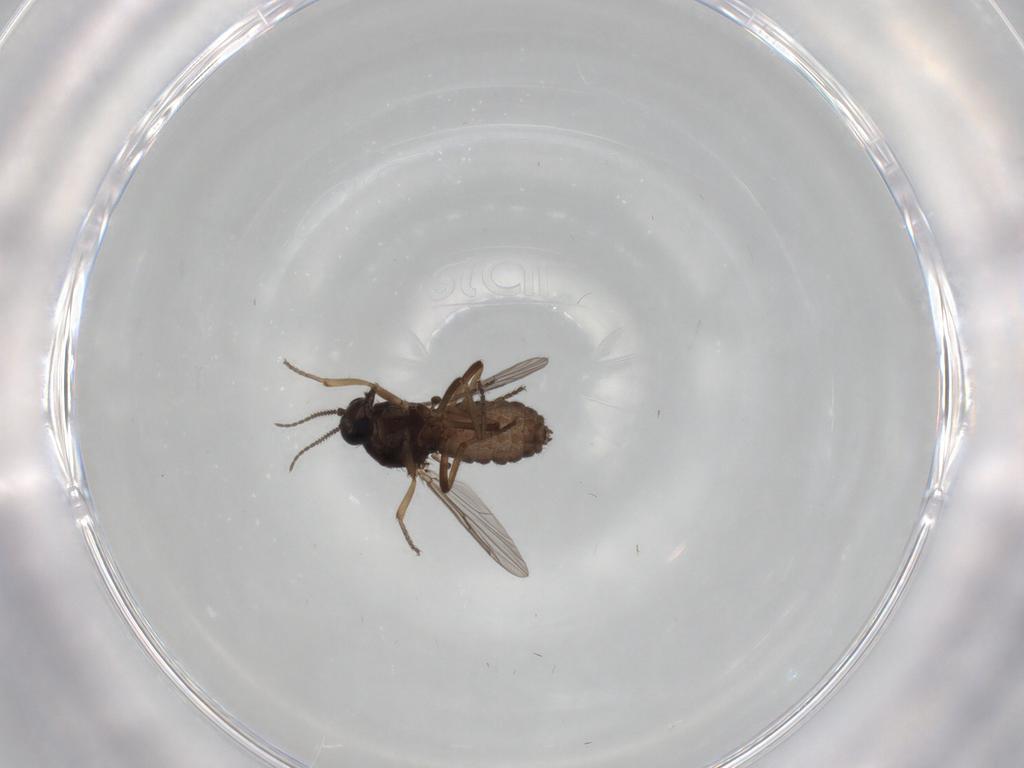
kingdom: Animalia
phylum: Arthropoda
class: Insecta
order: Diptera
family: Ceratopogonidae
